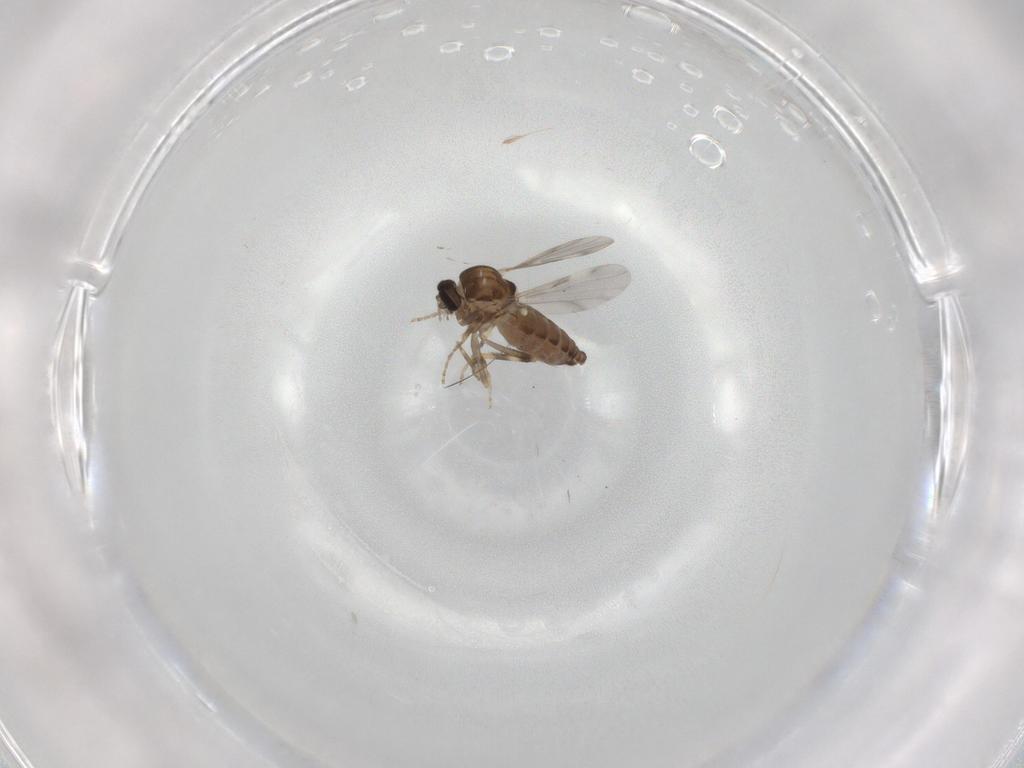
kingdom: Animalia
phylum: Arthropoda
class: Insecta
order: Diptera
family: Ceratopogonidae
